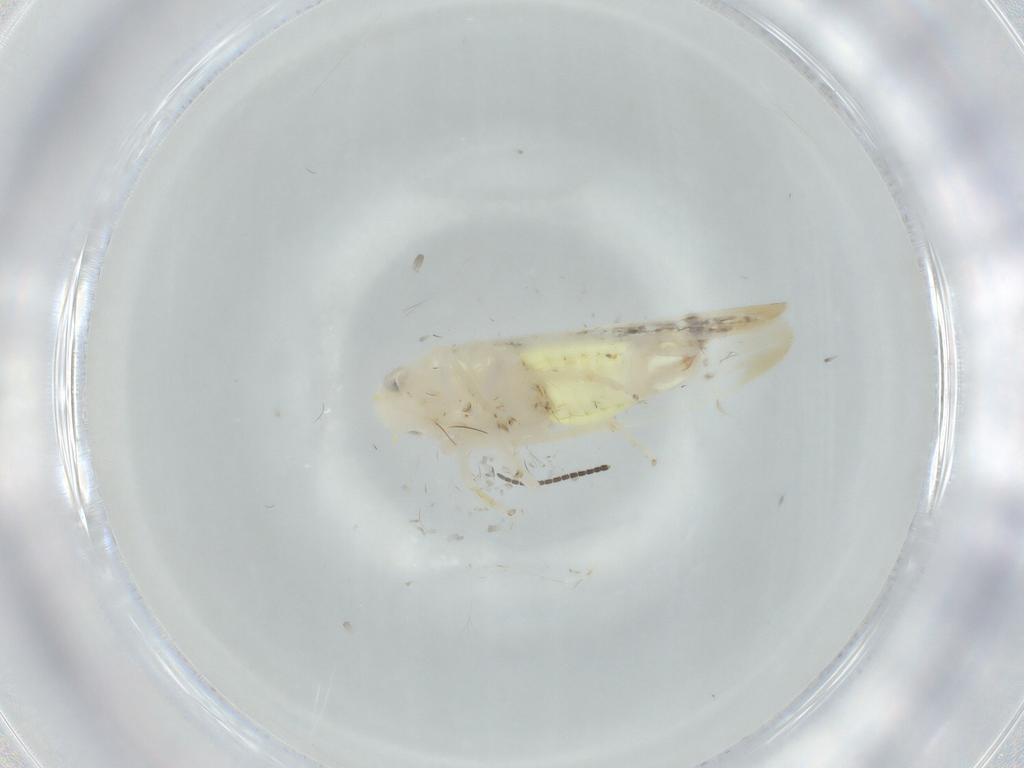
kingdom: Animalia
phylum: Arthropoda
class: Insecta
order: Hemiptera
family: Cicadellidae
